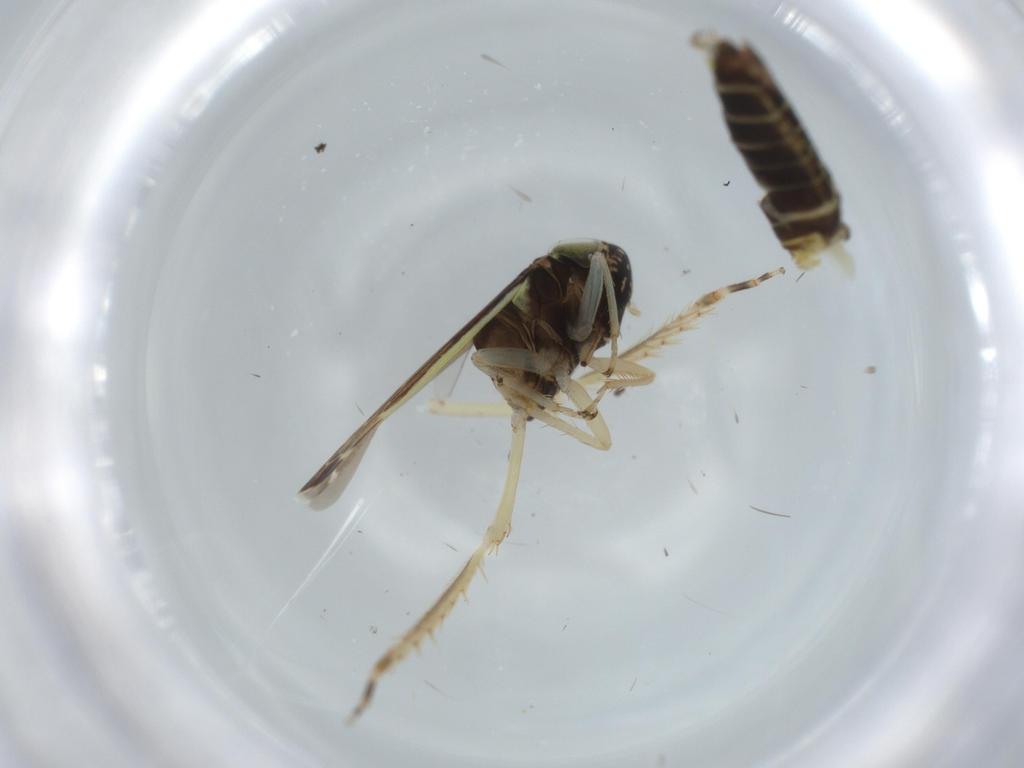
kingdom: Animalia
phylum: Arthropoda
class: Insecta
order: Hemiptera
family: Cicadellidae
